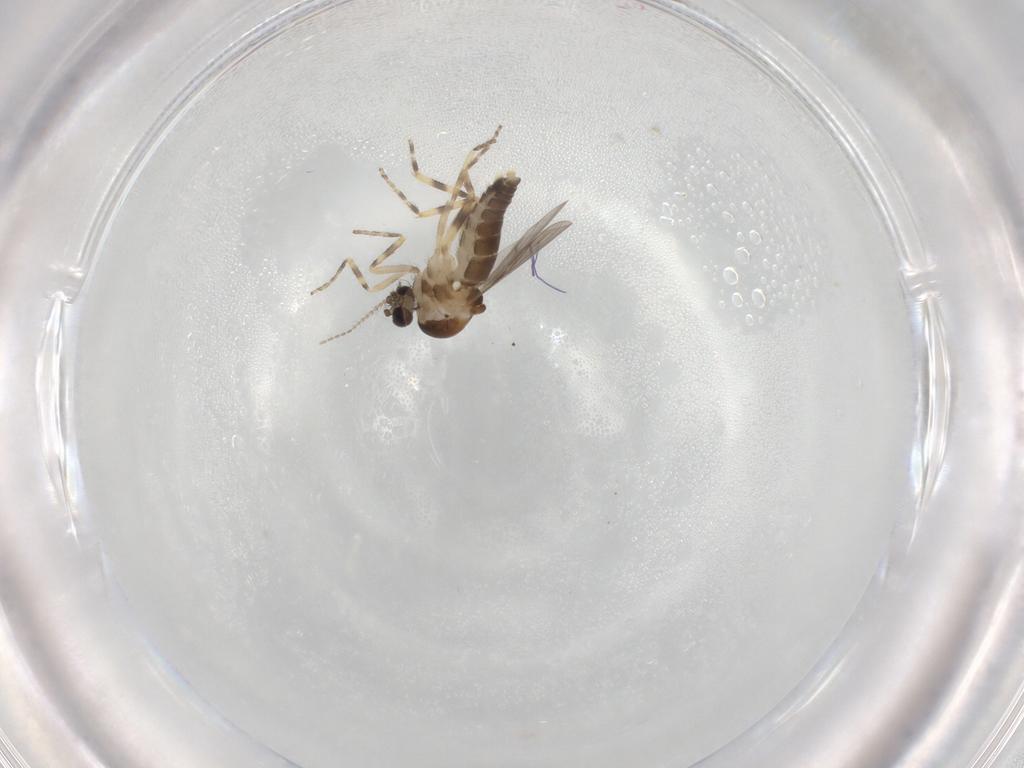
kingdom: Animalia
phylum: Arthropoda
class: Insecta
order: Diptera
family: Ceratopogonidae
